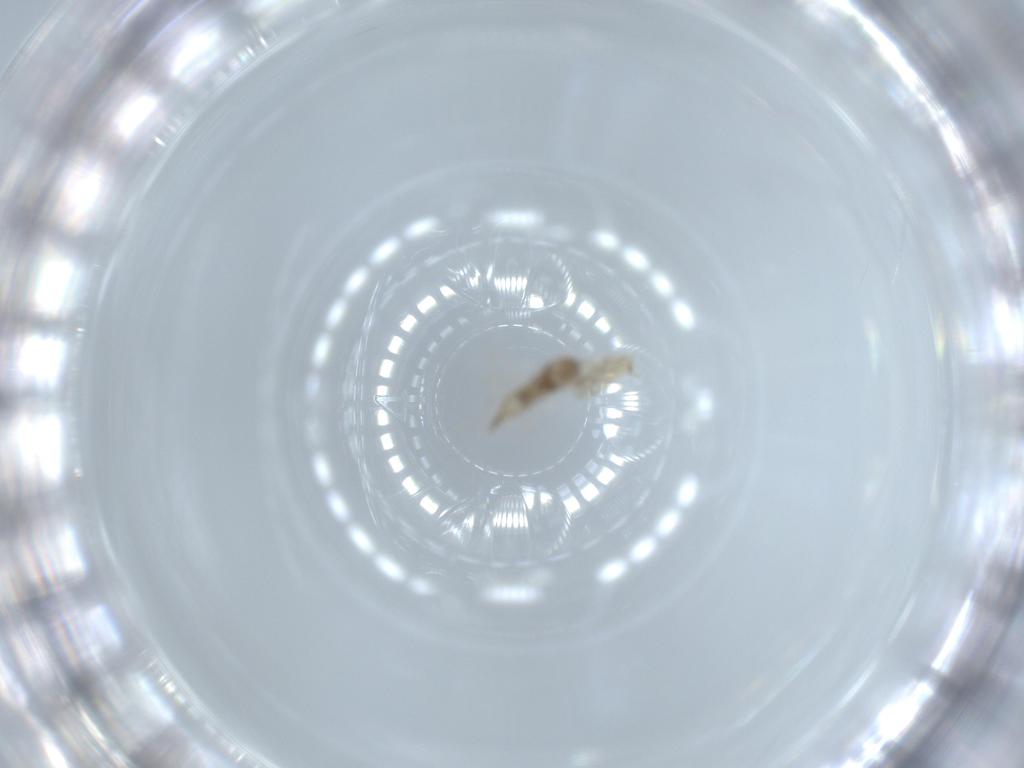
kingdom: Animalia
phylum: Arthropoda
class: Insecta
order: Diptera
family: Cecidomyiidae
